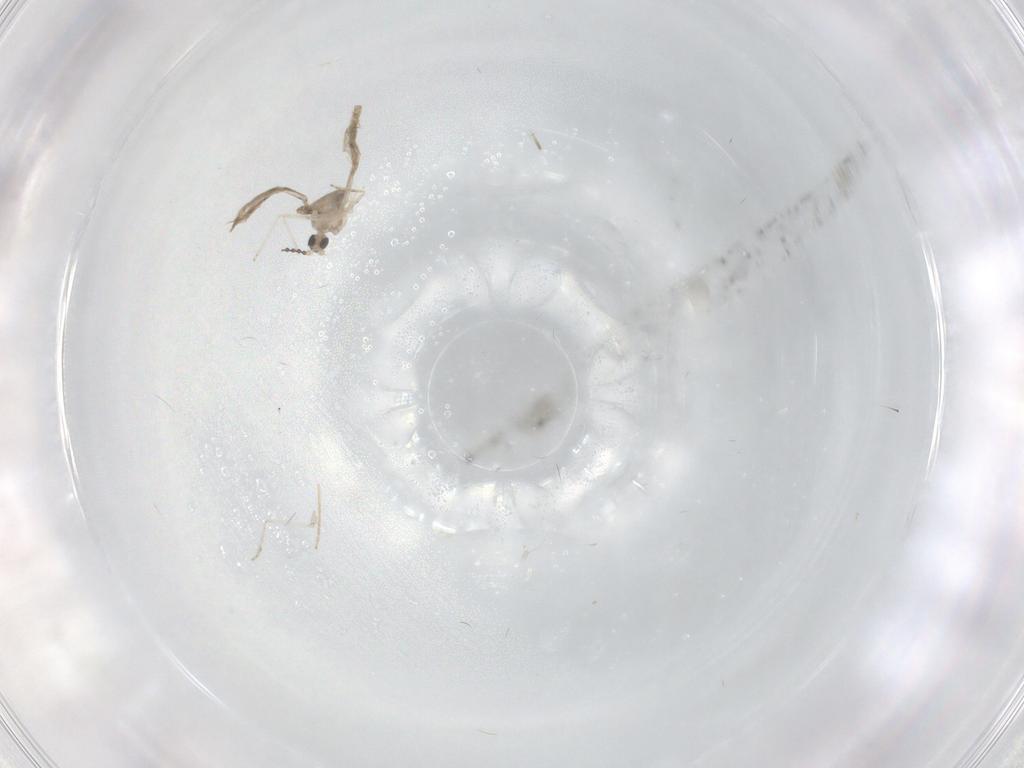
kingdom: Animalia
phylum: Arthropoda
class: Insecta
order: Diptera
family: Cecidomyiidae
